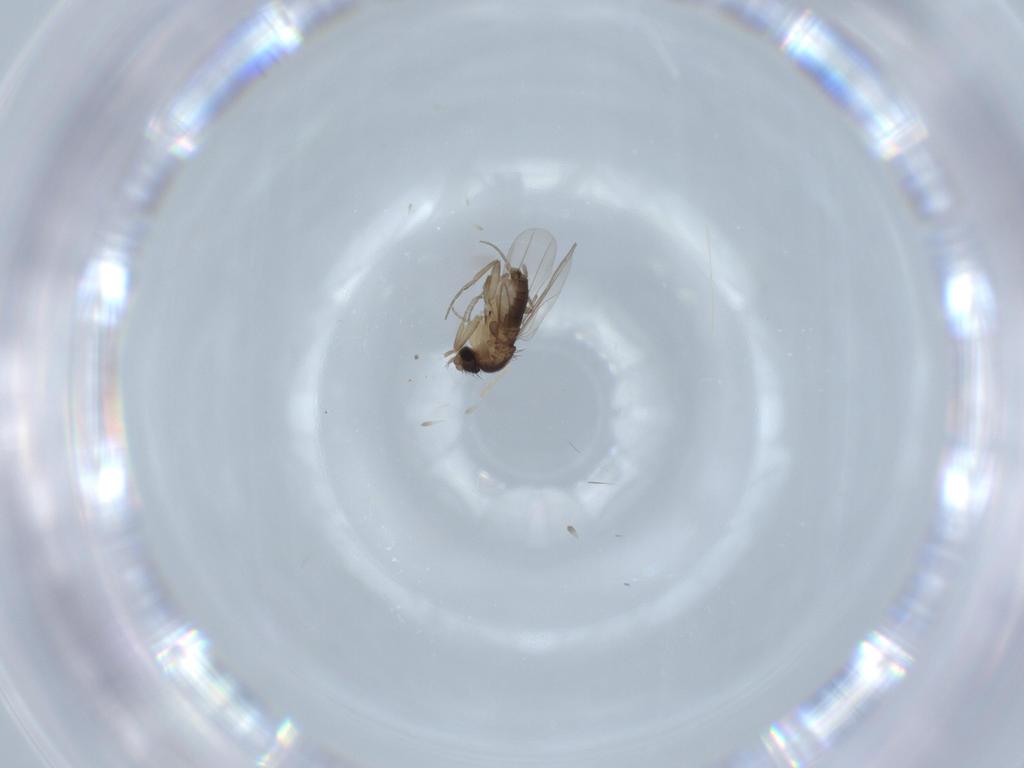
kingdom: Animalia
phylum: Arthropoda
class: Insecta
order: Diptera
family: Phoridae
